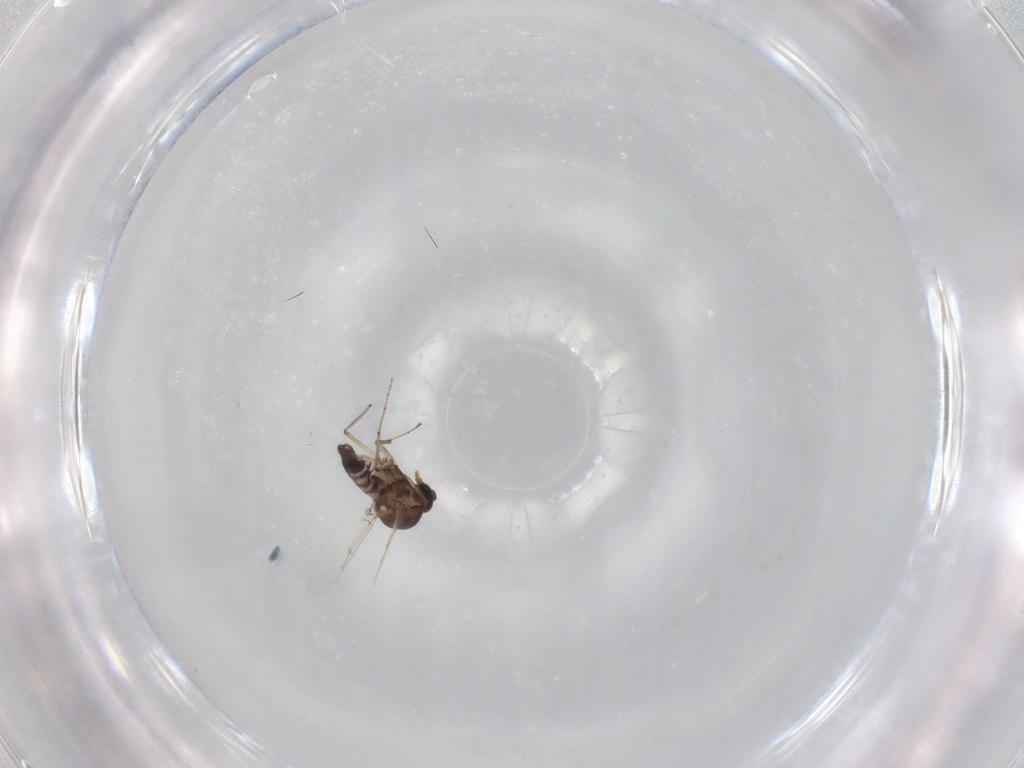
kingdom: Animalia
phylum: Arthropoda
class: Insecta
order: Diptera
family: Ceratopogonidae
